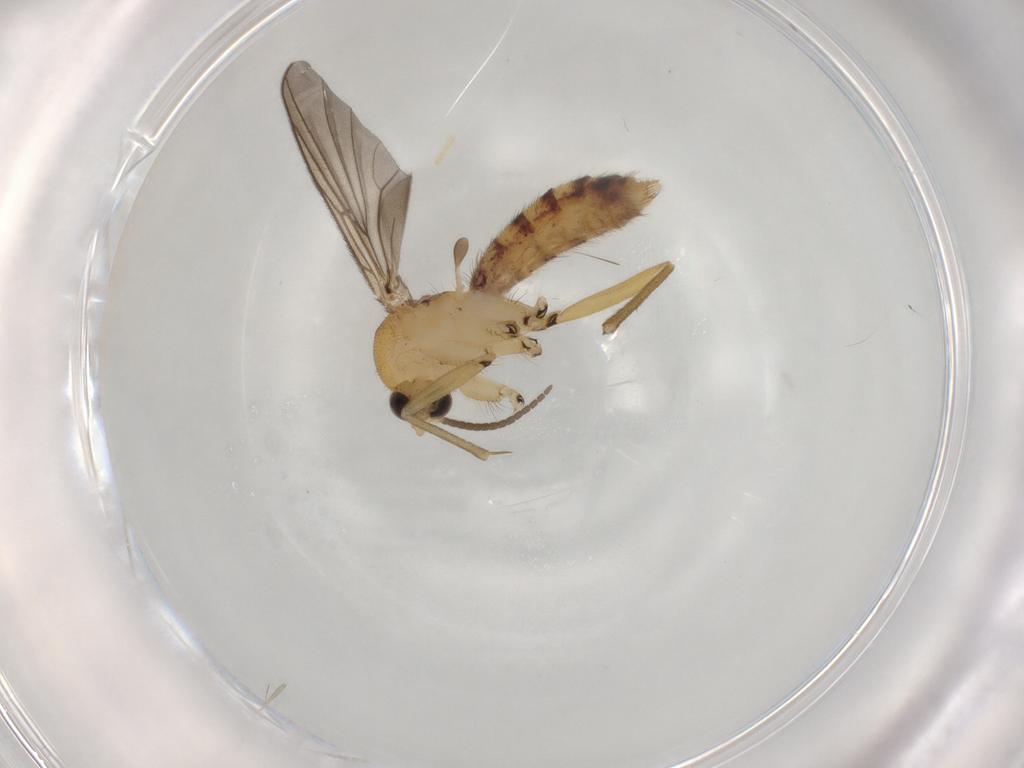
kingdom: Animalia
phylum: Arthropoda
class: Insecta
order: Diptera
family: Mycetophilidae
